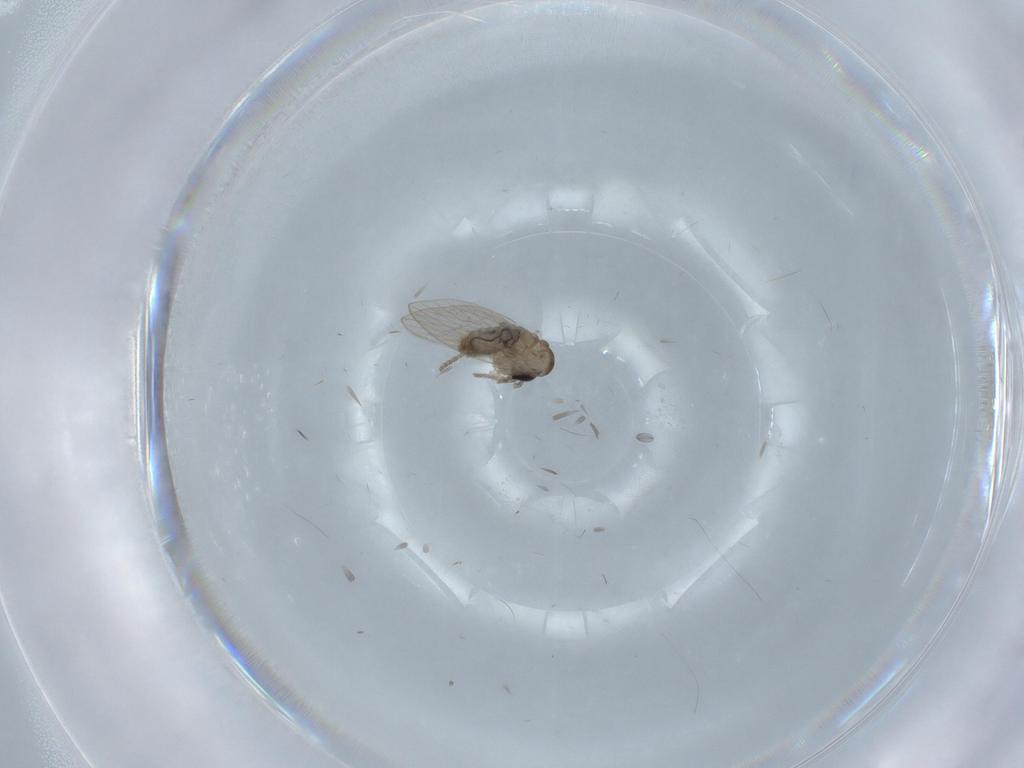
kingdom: Animalia
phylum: Arthropoda
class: Insecta
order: Diptera
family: Psychodidae
